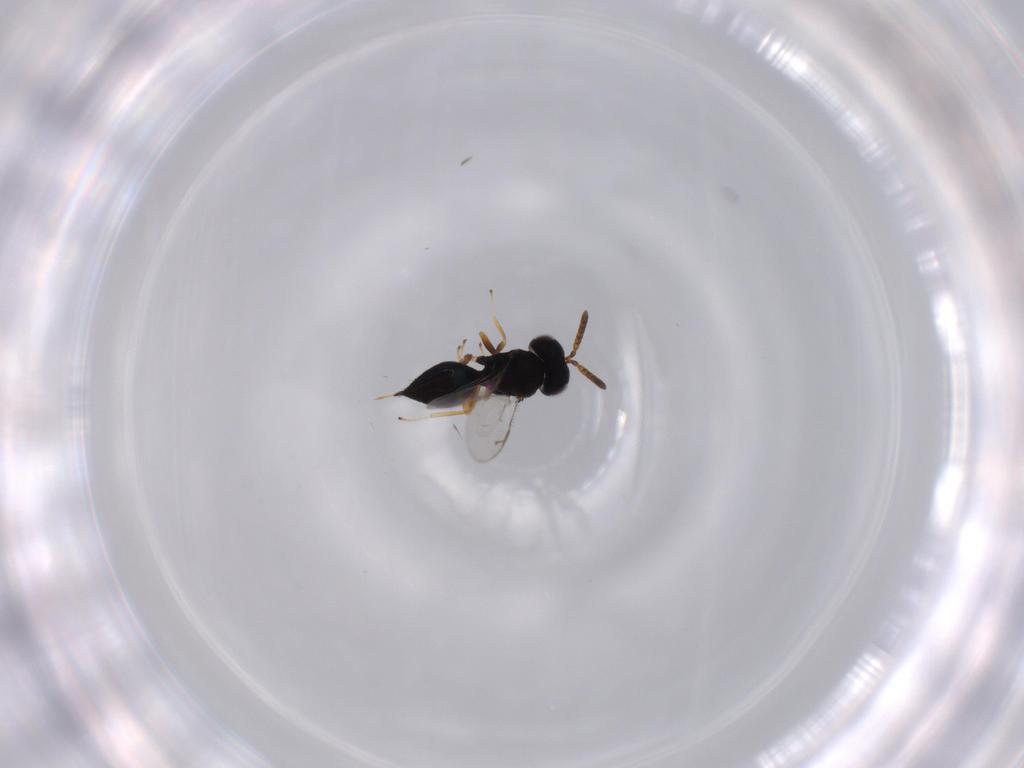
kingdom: Animalia
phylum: Arthropoda
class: Insecta
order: Hymenoptera
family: Pteromalidae
